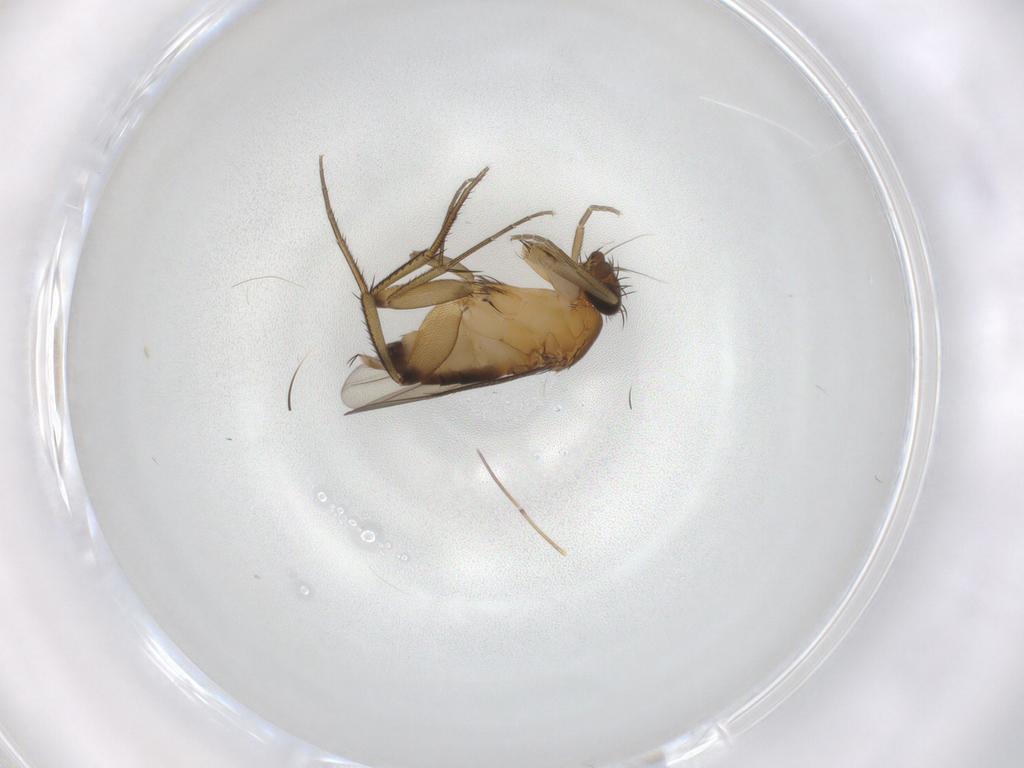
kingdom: Animalia
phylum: Arthropoda
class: Insecta
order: Diptera
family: Phoridae
